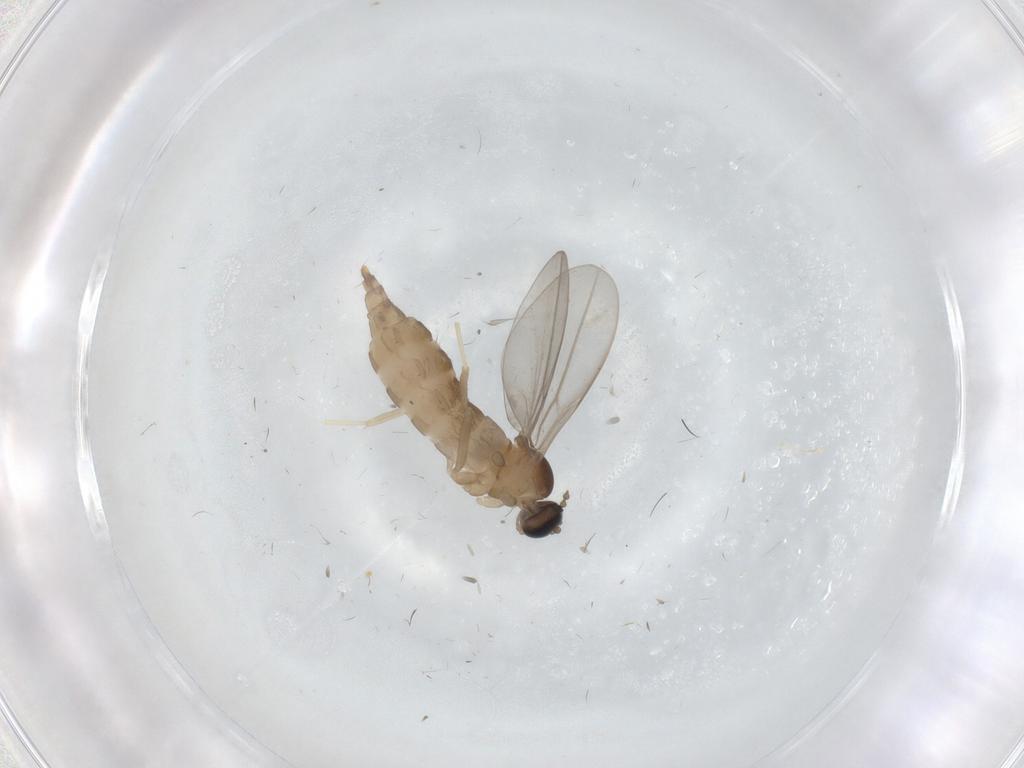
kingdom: Animalia
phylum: Arthropoda
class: Insecta
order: Diptera
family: Cecidomyiidae
